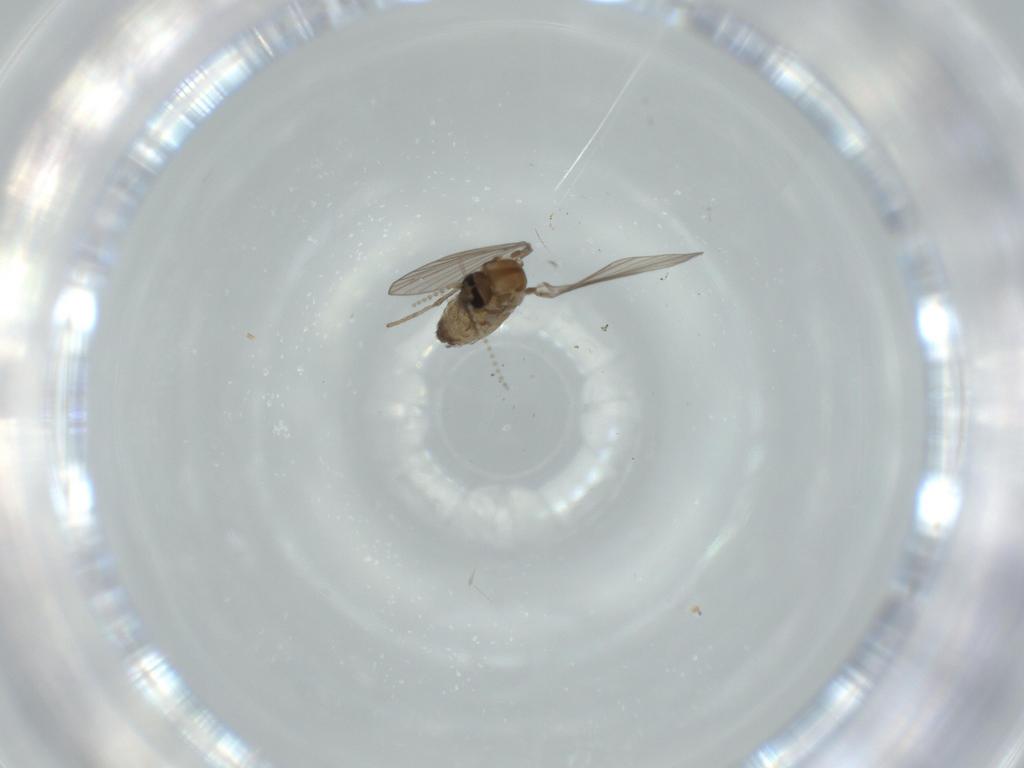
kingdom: Animalia
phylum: Arthropoda
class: Insecta
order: Diptera
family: Psychodidae
